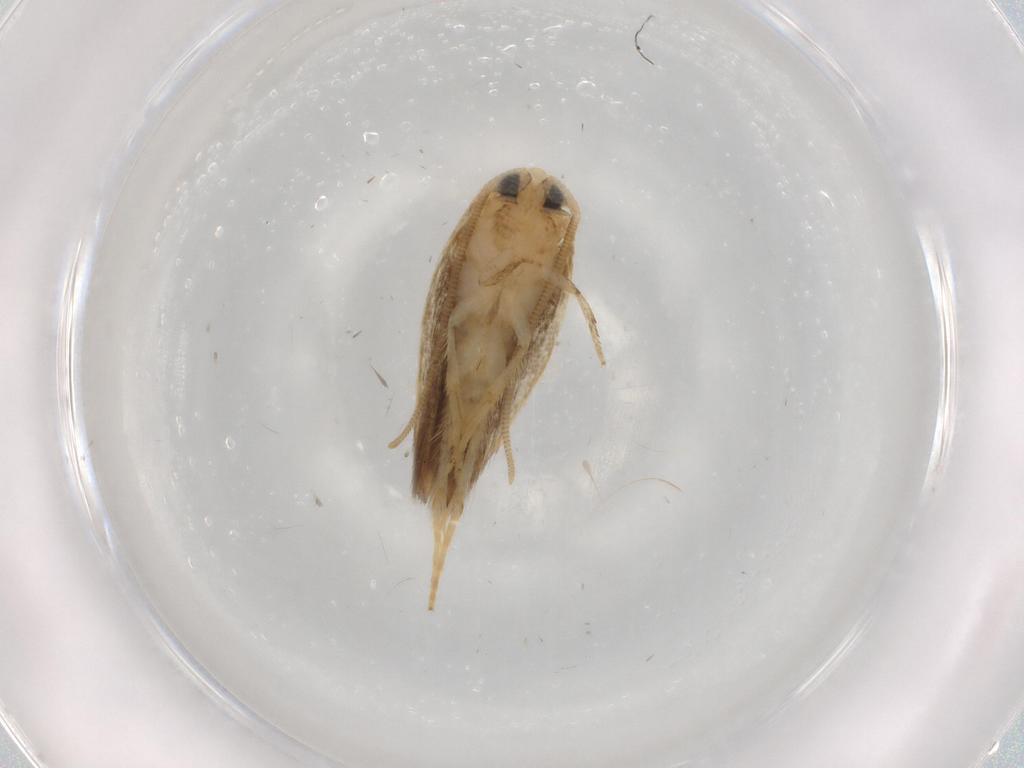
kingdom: Animalia
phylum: Arthropoda
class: Insecta
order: Lepidoptera
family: Opostegidae
